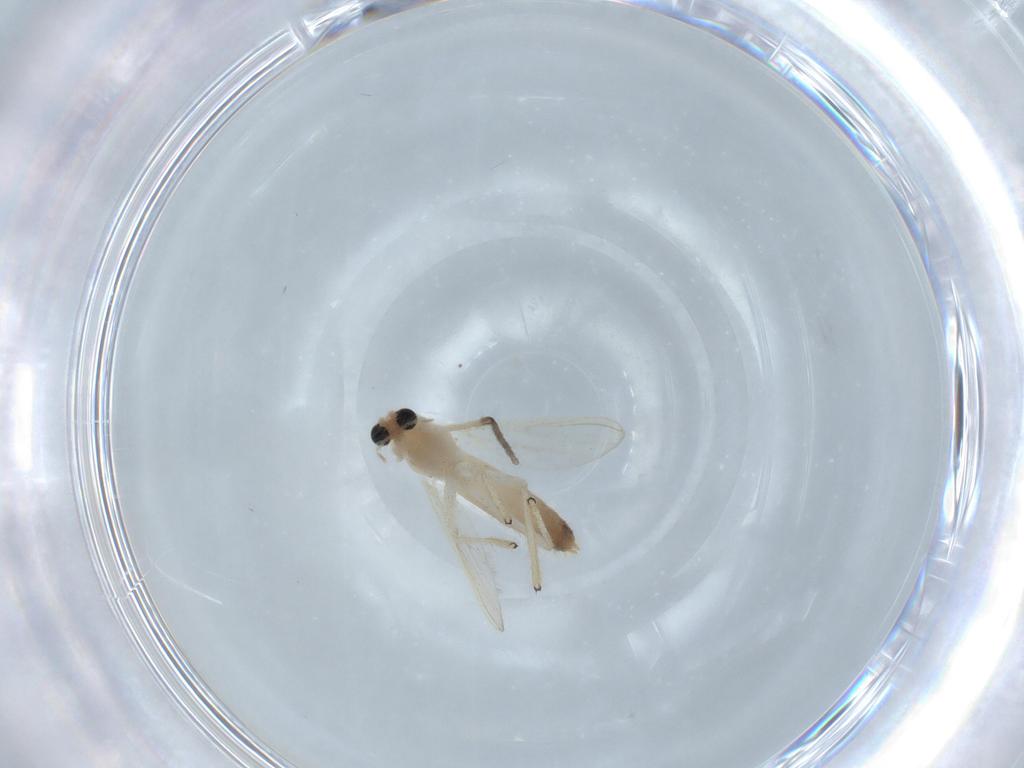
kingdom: Animalia
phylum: Arthropoda
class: Insecta
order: Diptera
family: Chironomidae
